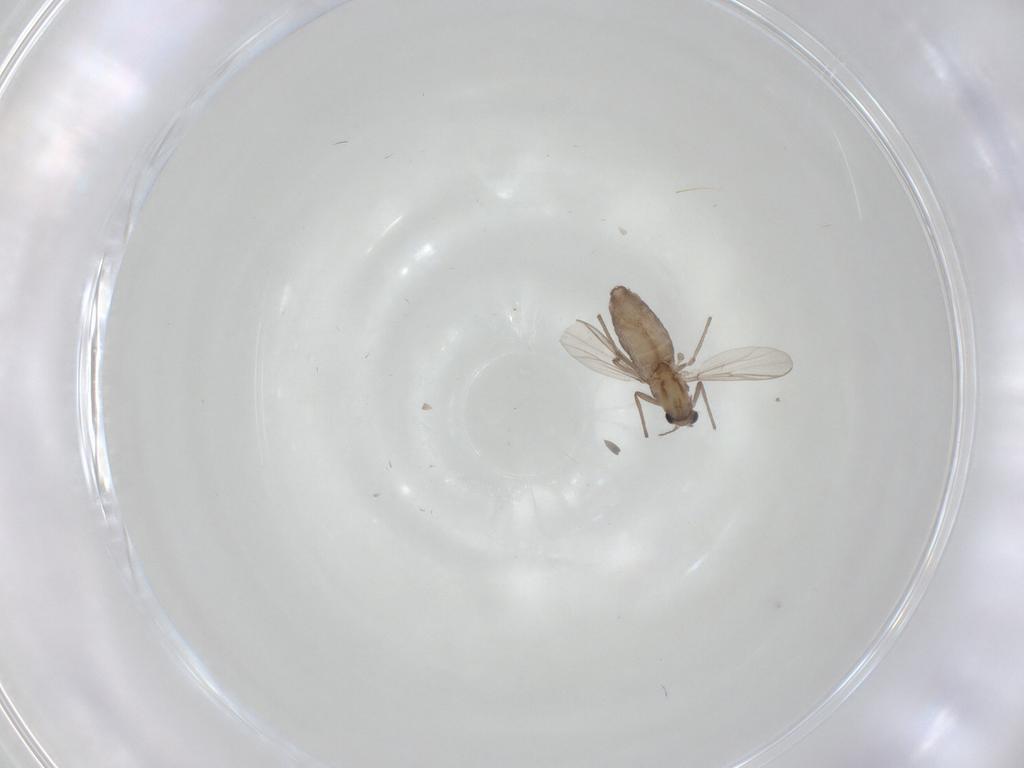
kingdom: Animalia
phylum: Arthropoda
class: Insecta
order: Diptera
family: Chironomidae
